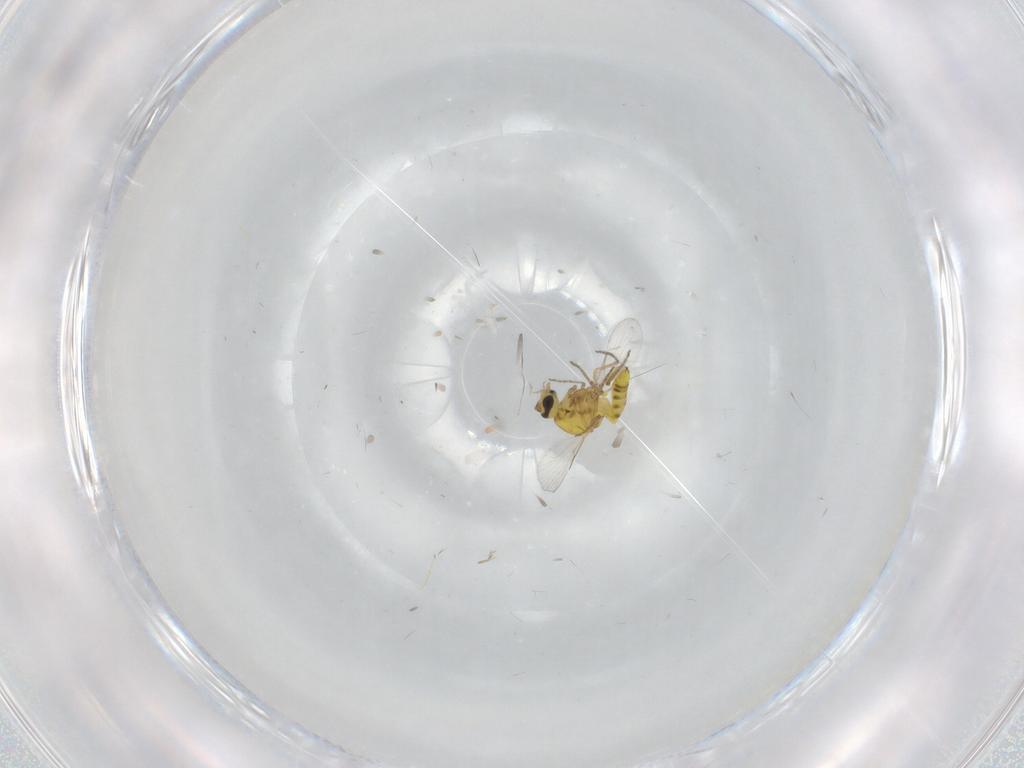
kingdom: Animalia
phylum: Arthropoda
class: Insecta
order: Diptera
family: Ceratopogonidae
